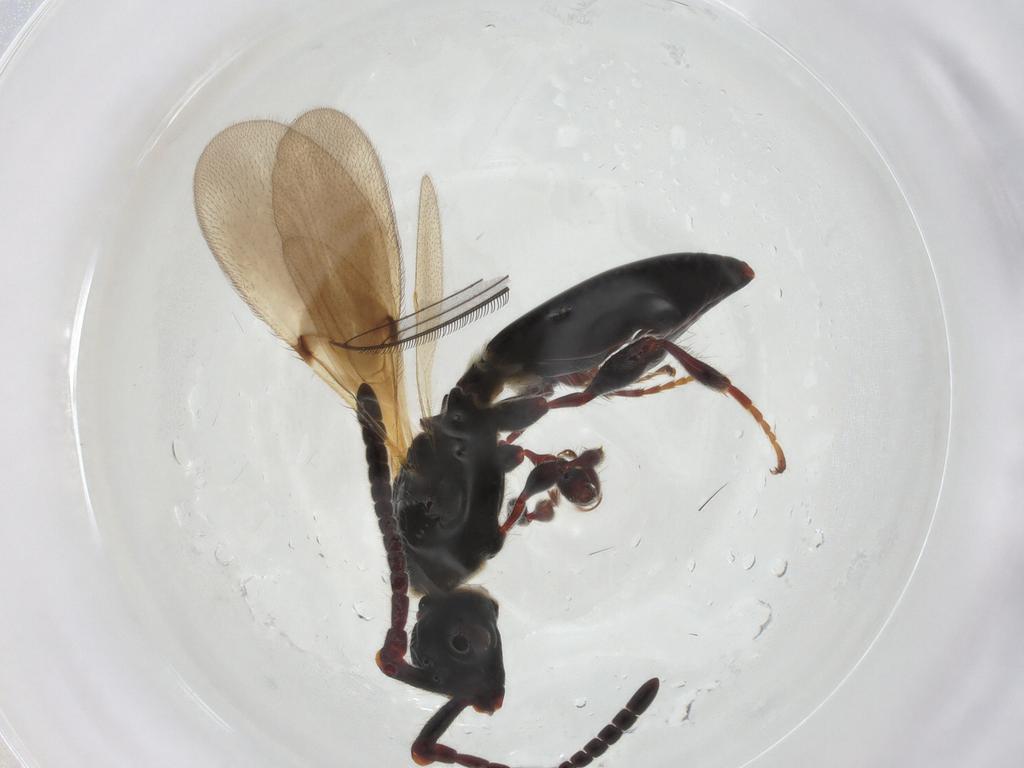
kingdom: Animalia
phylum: Arthropoda
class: Insecta
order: Hymenoptera
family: Diapriidae
